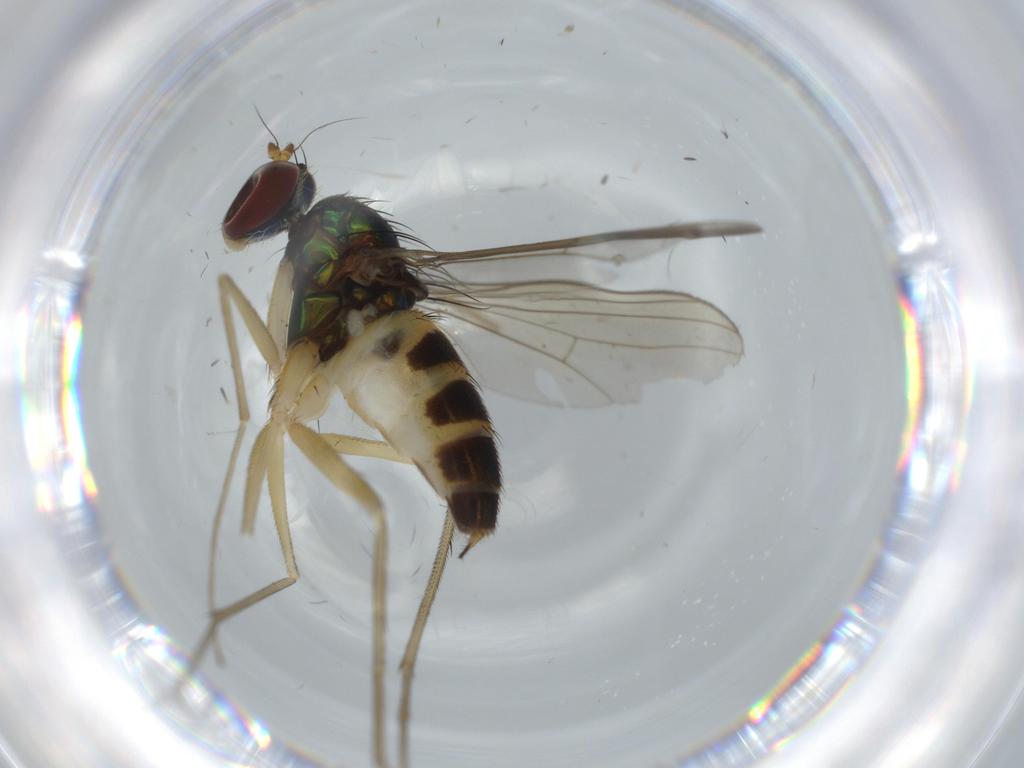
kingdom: Animalia
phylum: Arthropoda
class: Insecta
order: Diptera
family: Dolichopodidae
